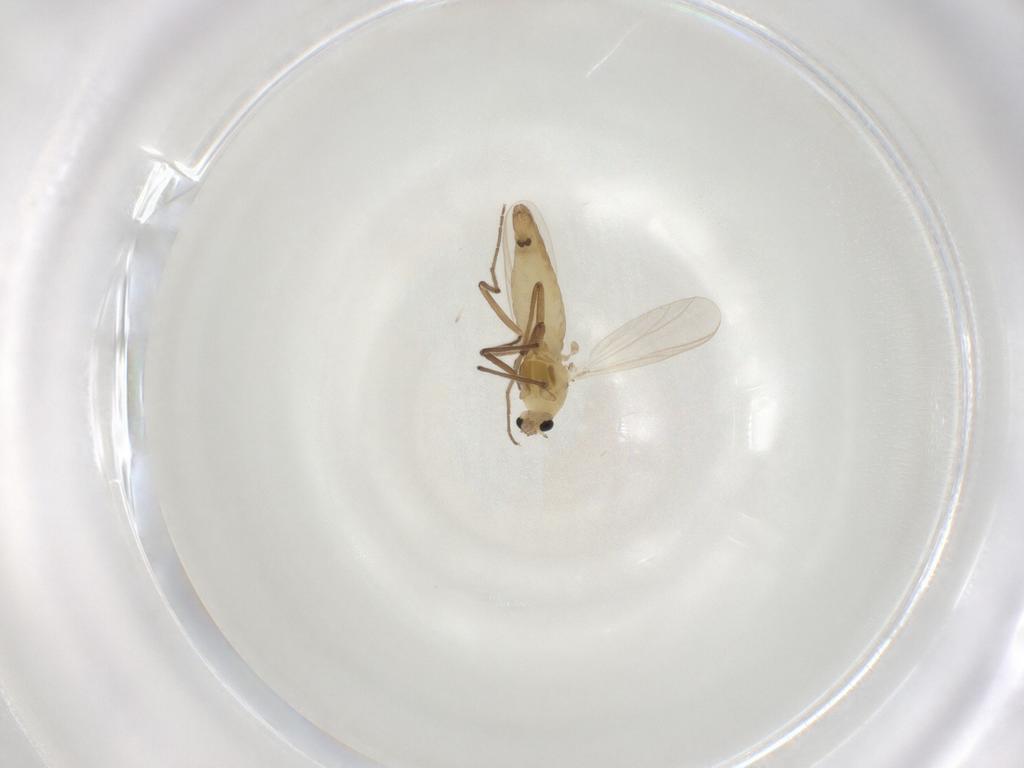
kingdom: Animalia
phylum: Arthropoda
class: Insecta
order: Diptera
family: Chironomidae
